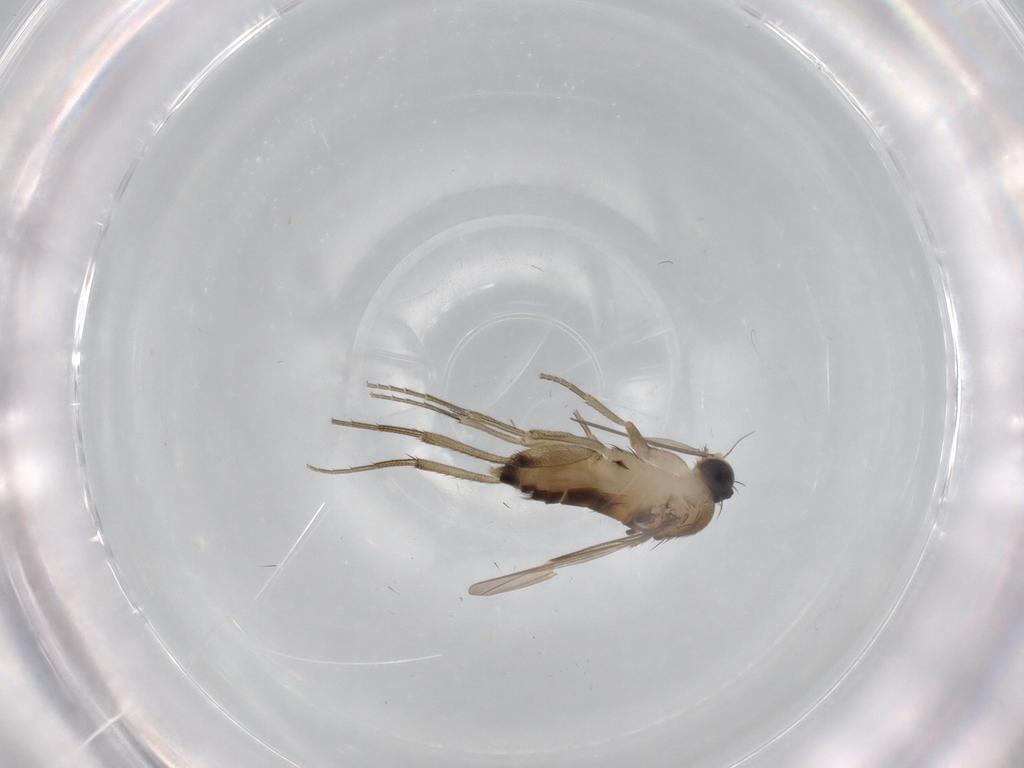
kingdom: Animalia
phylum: Arthropoda
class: Insecta
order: Diptera
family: Phoridae
